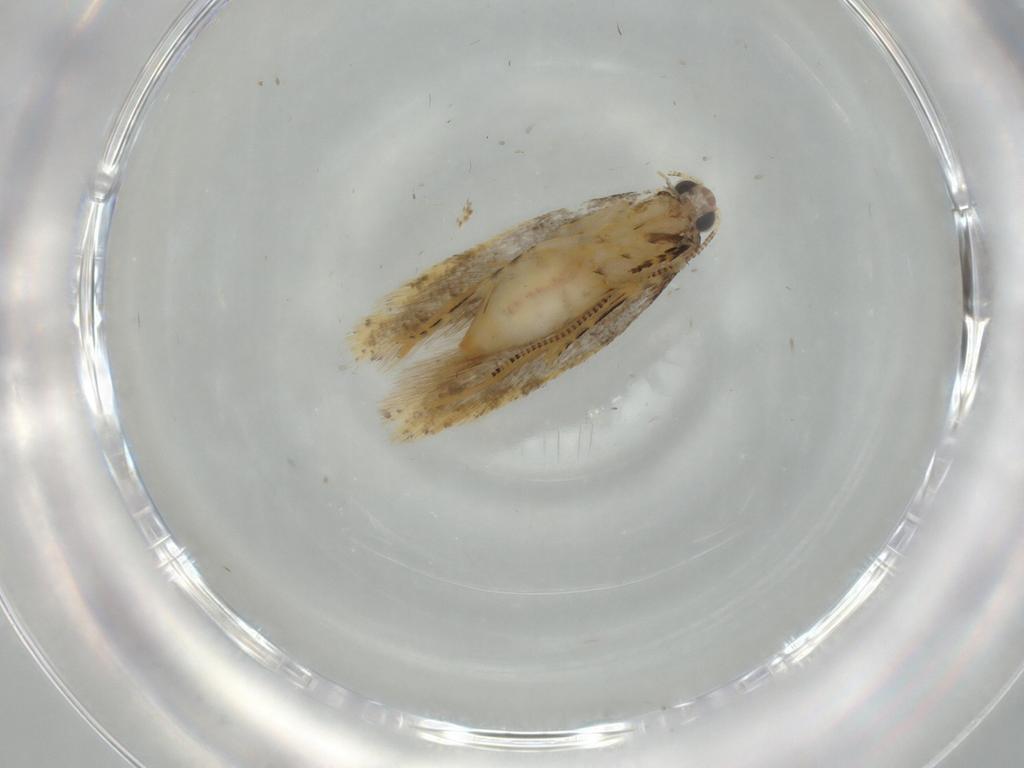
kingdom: Animalia
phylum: Arthropoda
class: Insecta
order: Lepidoptera
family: Tineidae
